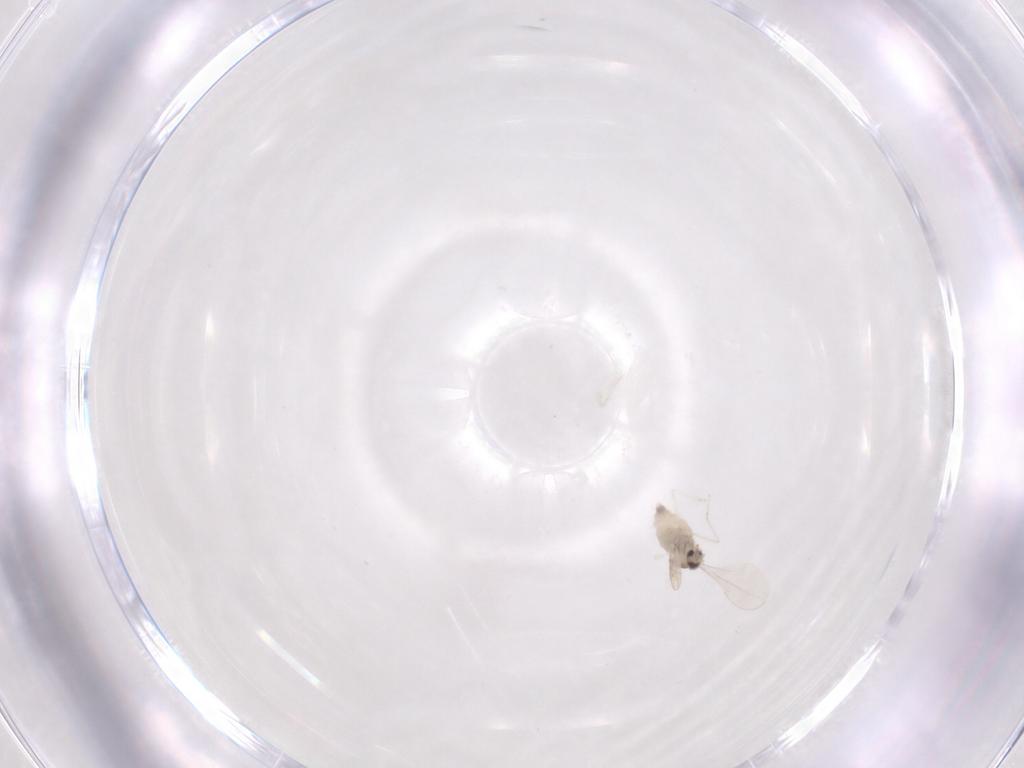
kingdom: Animalia
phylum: Arthropoda
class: Insecta
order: Diptera
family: Cecidomyiidae
